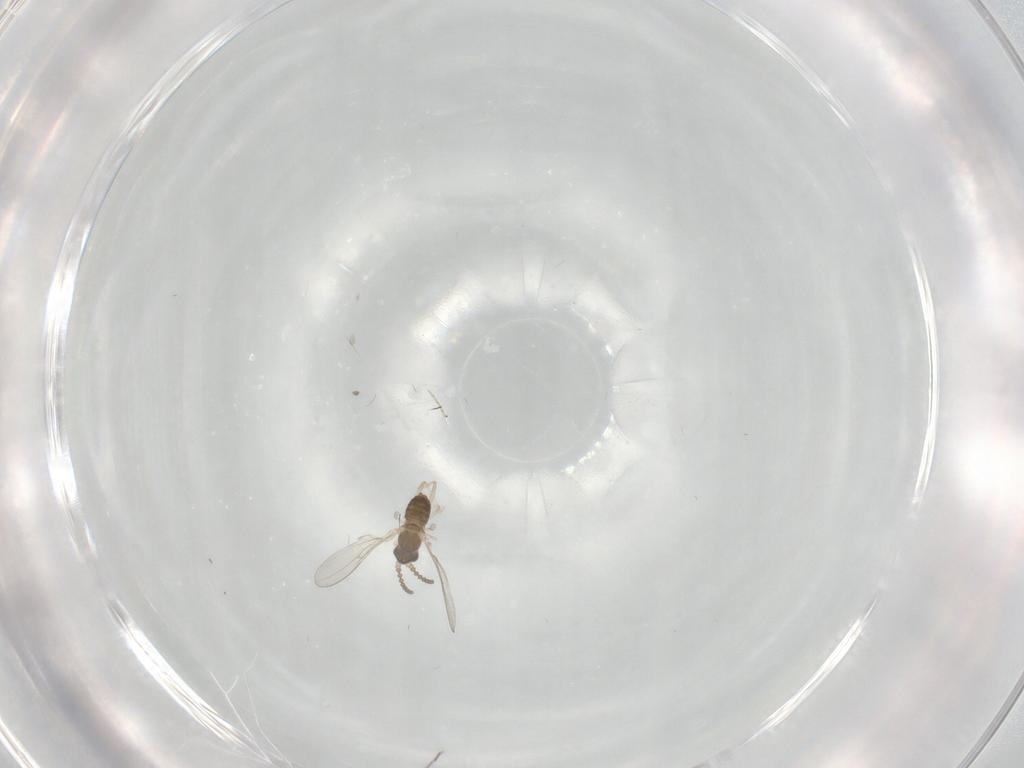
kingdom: Animalia
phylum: Arthropoda
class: Insecta
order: Diptera
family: Cecidomyiidae
